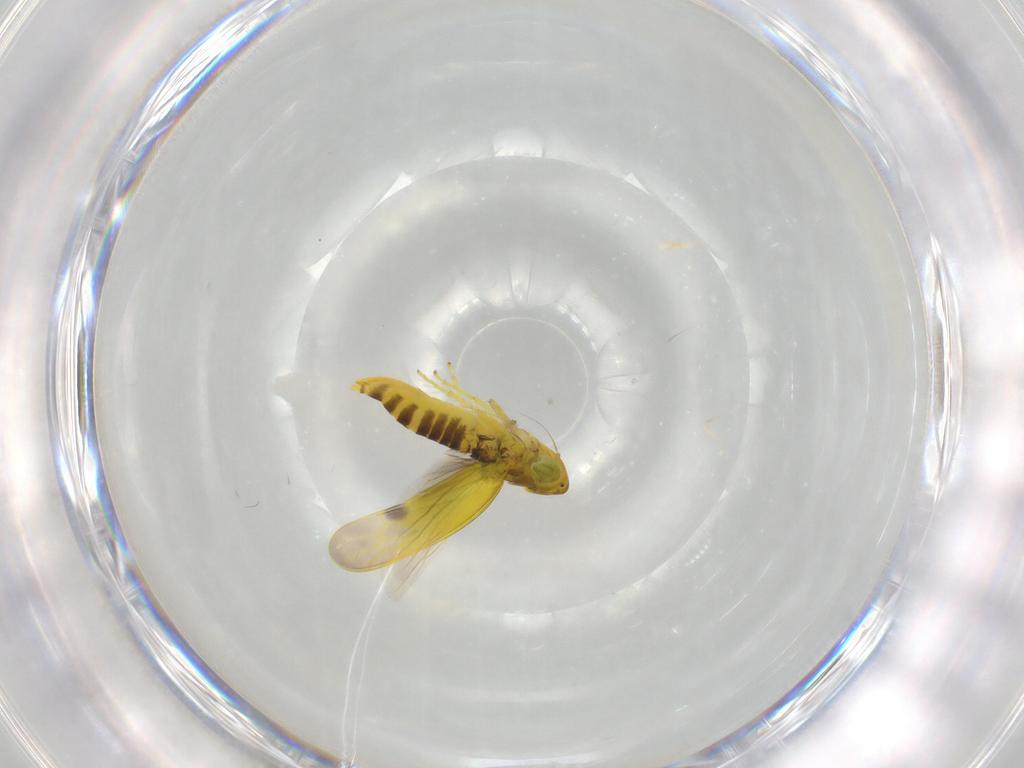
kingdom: Animalia
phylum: Arthropoda
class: Insecta
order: Hemiptera
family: Cicadellidae
